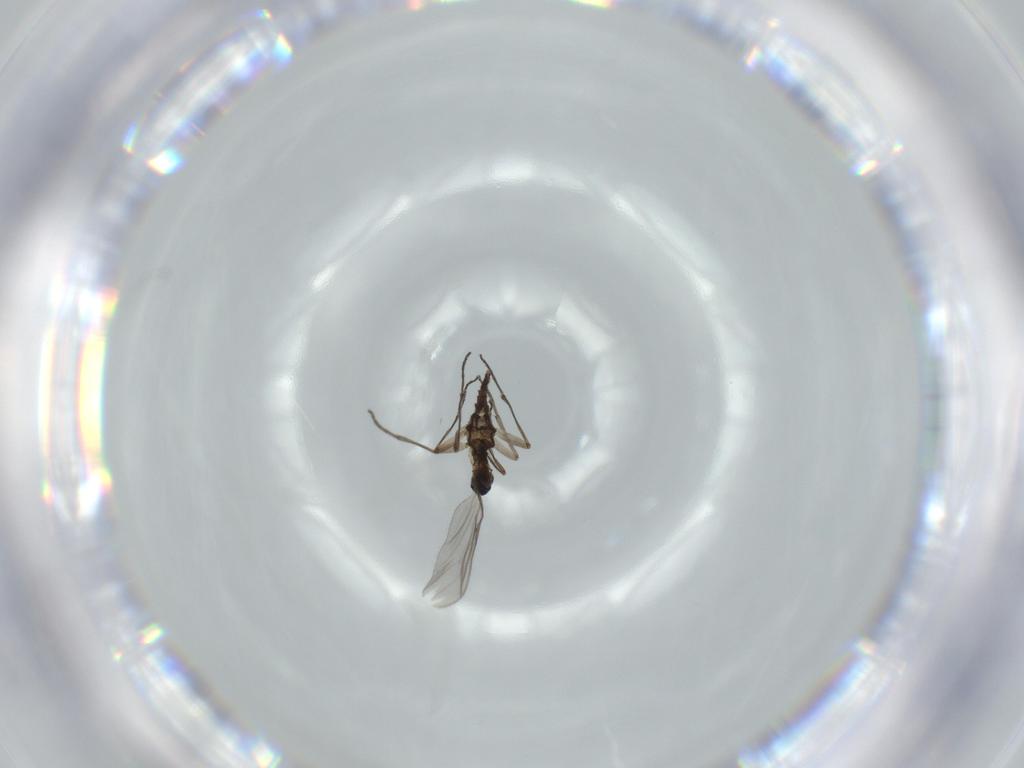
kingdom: Animalia
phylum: Arthropoda
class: Insecta
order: Diptera
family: Sciaridae
